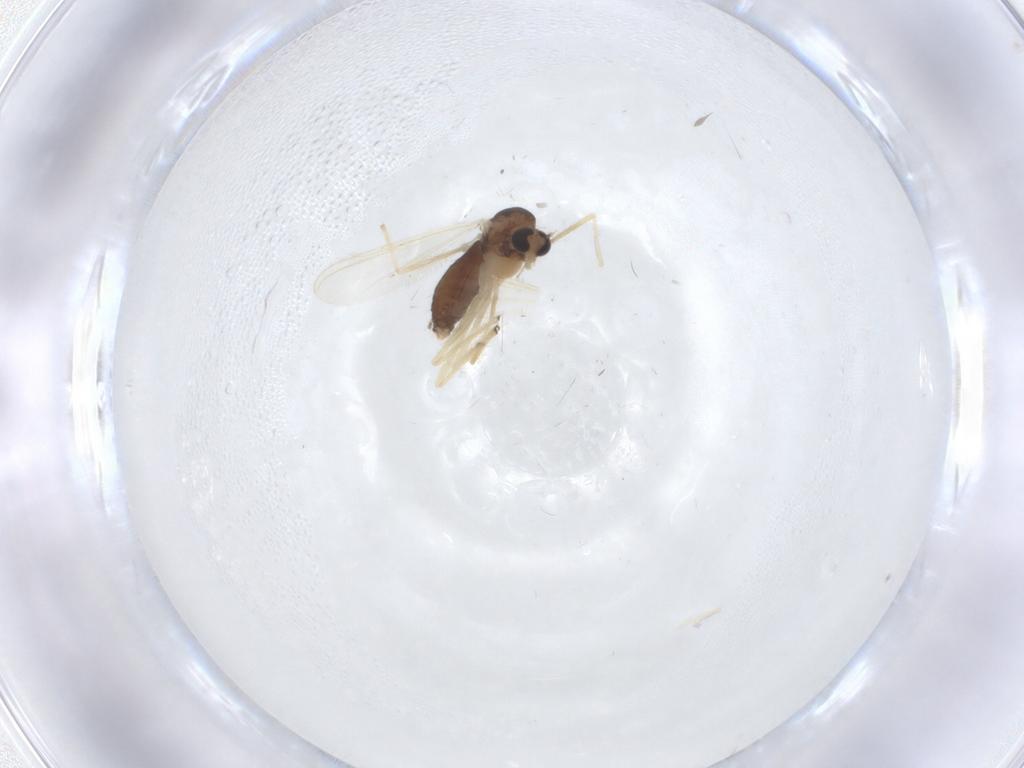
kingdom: Animalia
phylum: Arthropoda
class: Insecta
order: Diptera
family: Chironomidae
